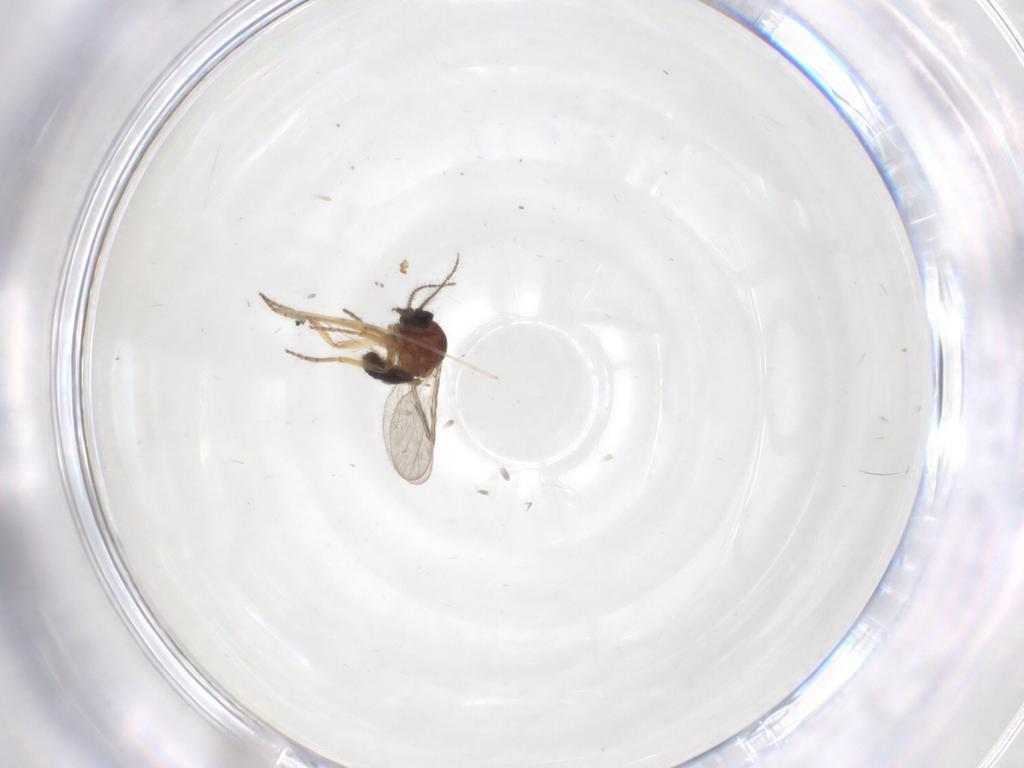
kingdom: Animalia
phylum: Arthropoda
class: Insecta
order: Diptera
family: Ceratopogonidae
